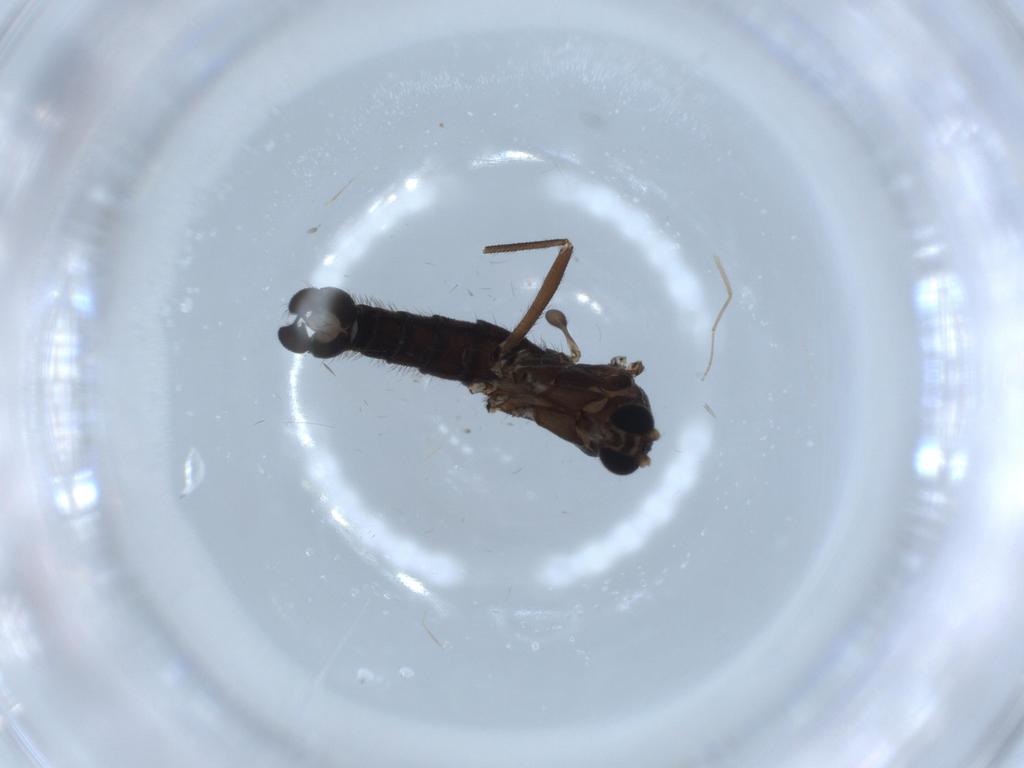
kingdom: Animalia
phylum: Arthropoda
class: Insecta
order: Diptera
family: Sciaridae
